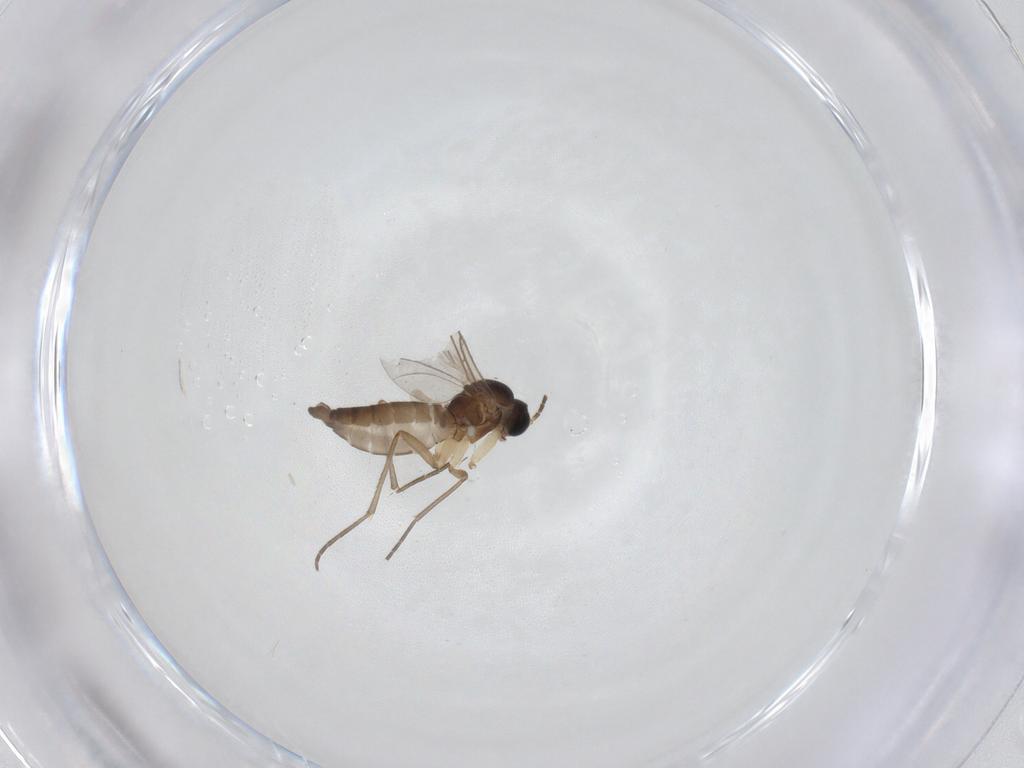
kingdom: Animalia
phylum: Arthropoda
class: Insecta
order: Diptera
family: Sciaridae
